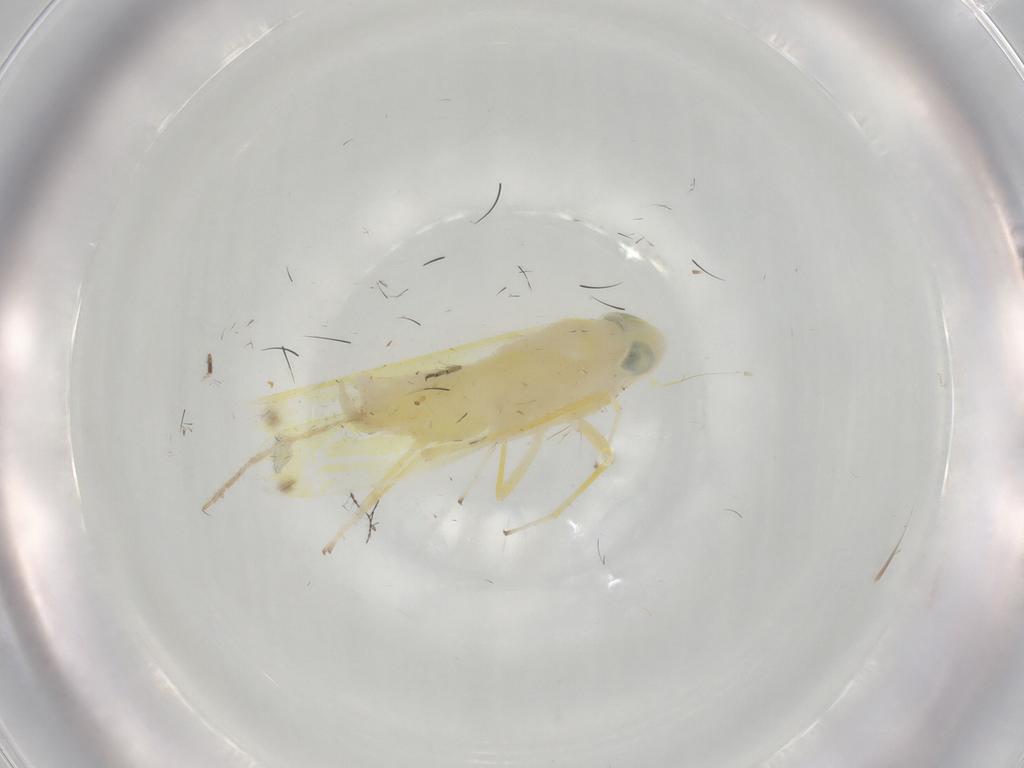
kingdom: Animalia
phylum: Arthropoda
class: Insecta
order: Hemiptera
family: Cicadellidae
